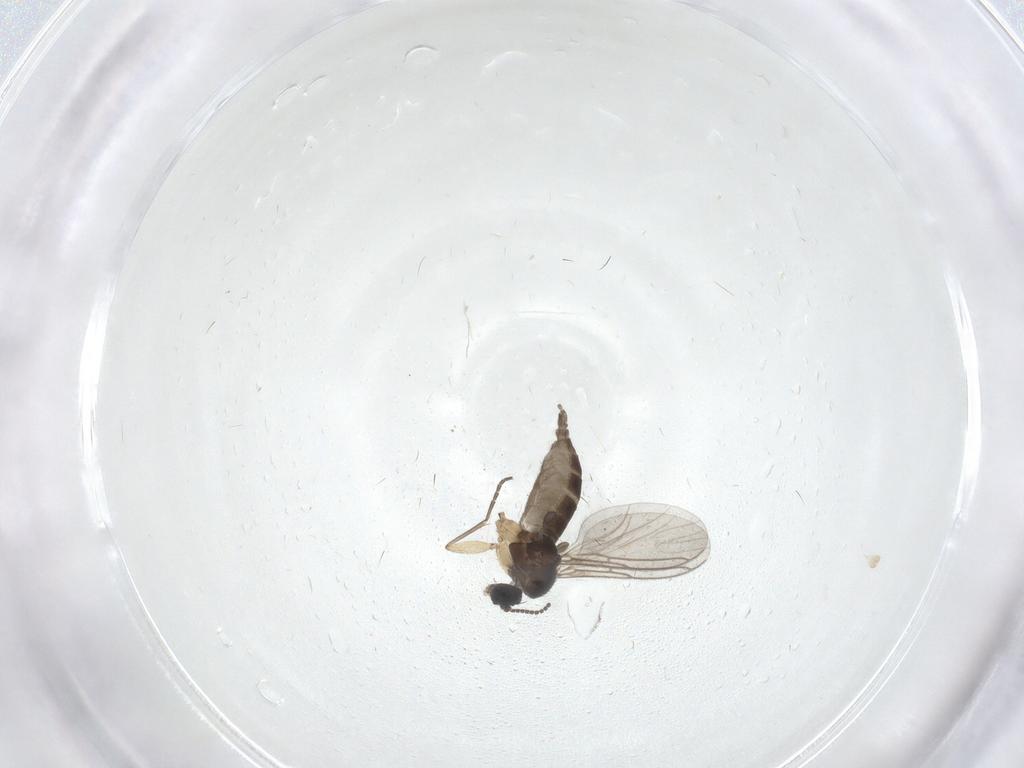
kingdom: Animalia
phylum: Arthropoda
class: Insecta
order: Diptera
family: Sciaridae
